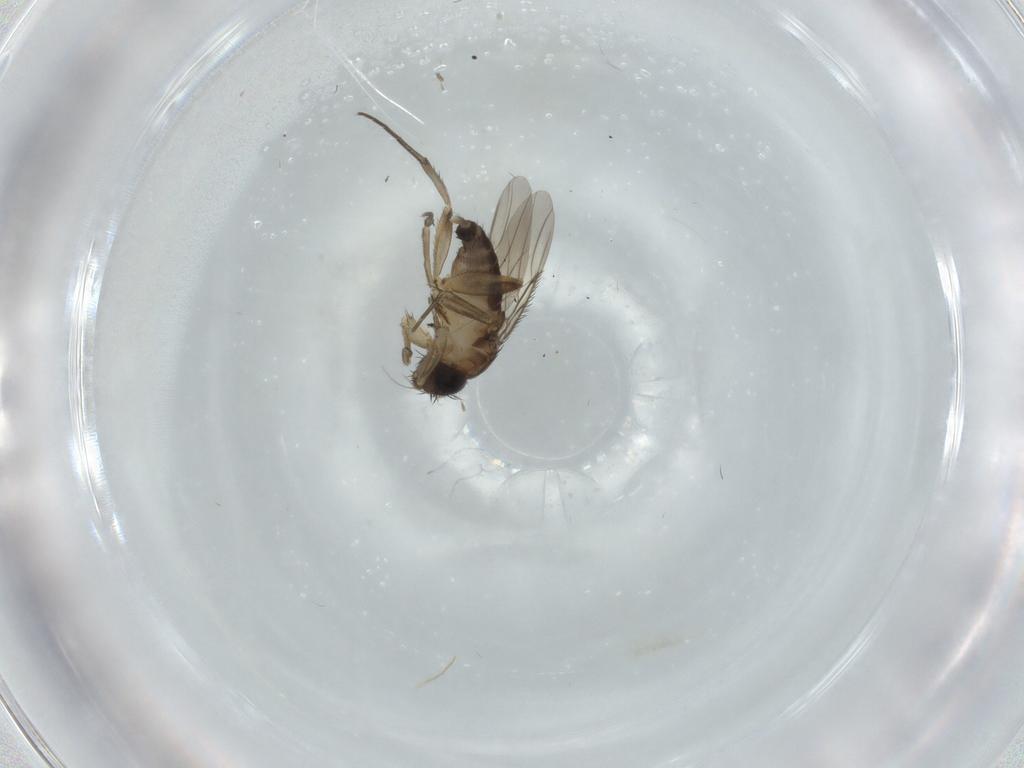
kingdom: Animalia
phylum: Arthropoda
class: Insecta
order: Diptera
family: Phoridae
